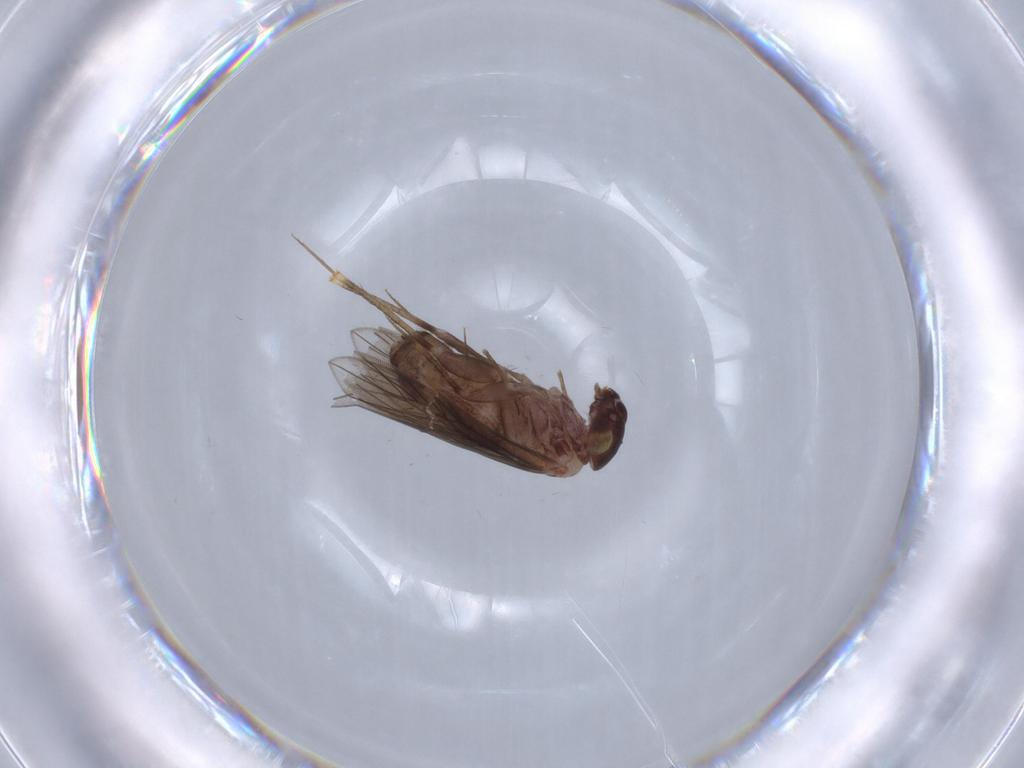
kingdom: Animalia
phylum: Arthropoda
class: Insecta
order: Psocodea
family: Lepidopsocidae
